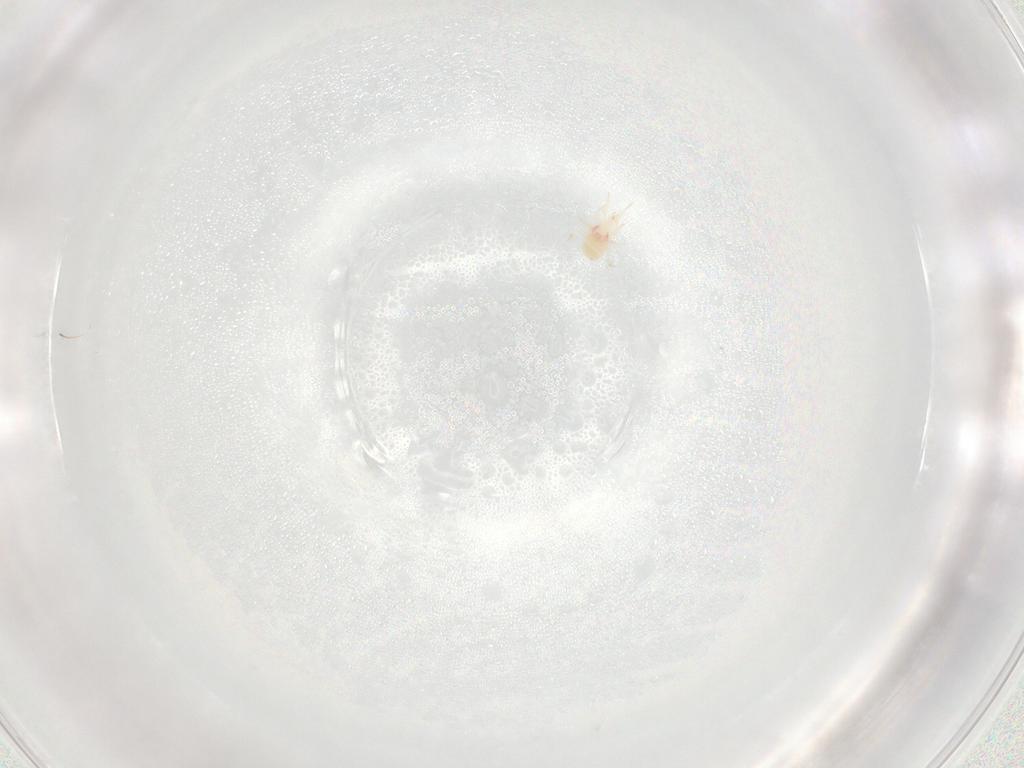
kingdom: Animalia
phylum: Arthropoda
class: Arachnida
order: Mesostigmata
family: Phytoseiidae
